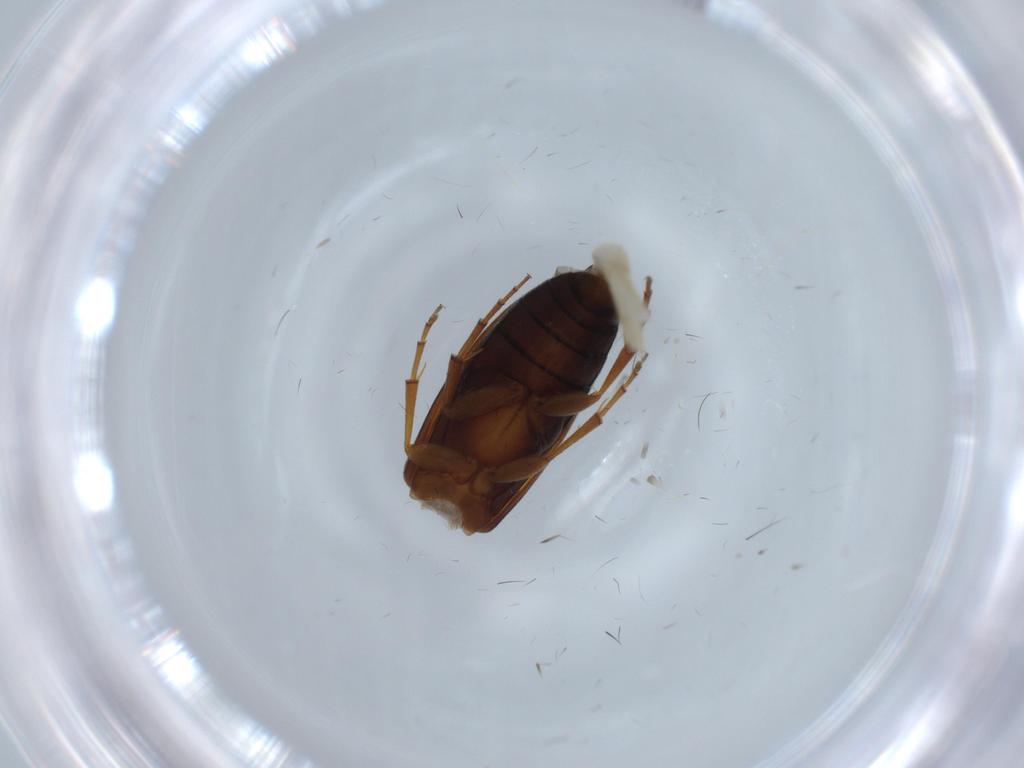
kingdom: Animalia
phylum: Arthropoda
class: Insecta
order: Coleoptera
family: Scraptiidae
